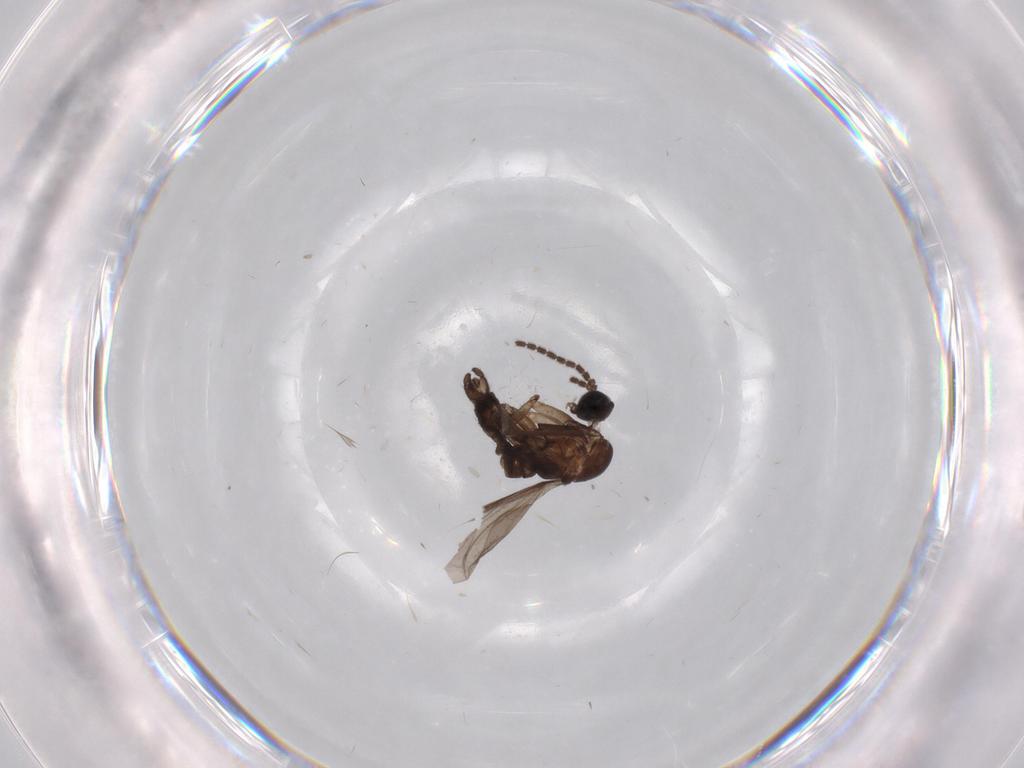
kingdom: Animalia
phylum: Arthropoda
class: Insecta
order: Diptera
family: Sciaridae
